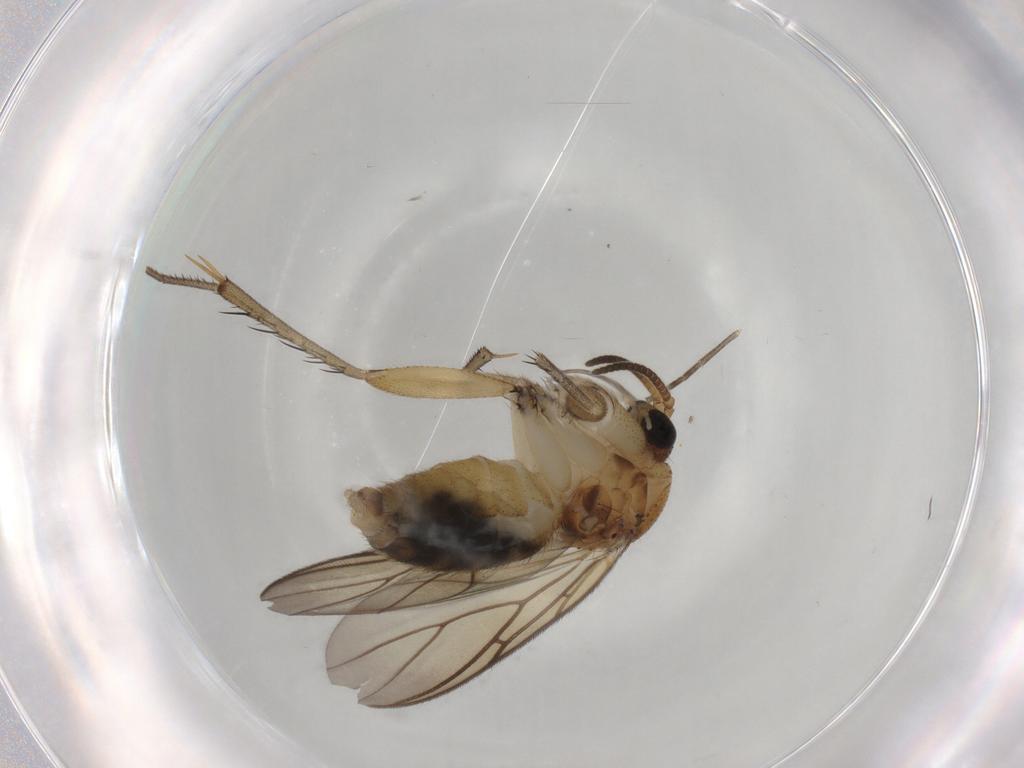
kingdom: Animalia
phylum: Arthropoda
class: Insecta
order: Diptera
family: Mycetophilidae
